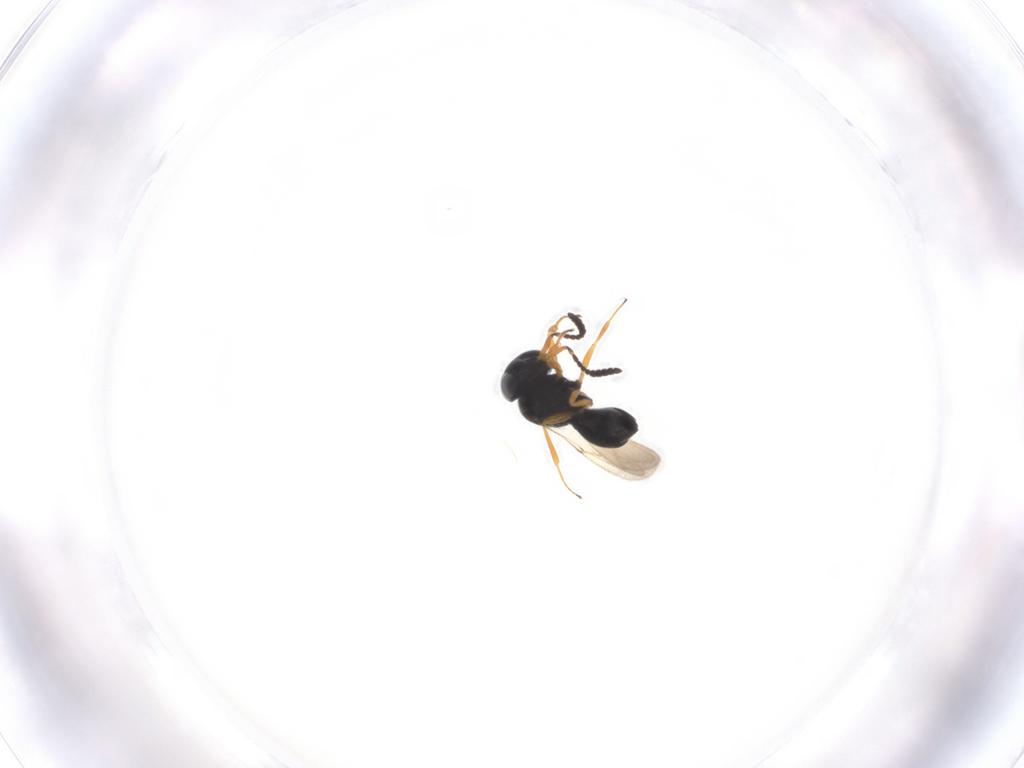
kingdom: Animalia
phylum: Arthropoda
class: Insecta
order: Hymenoptera
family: Scelionidae
